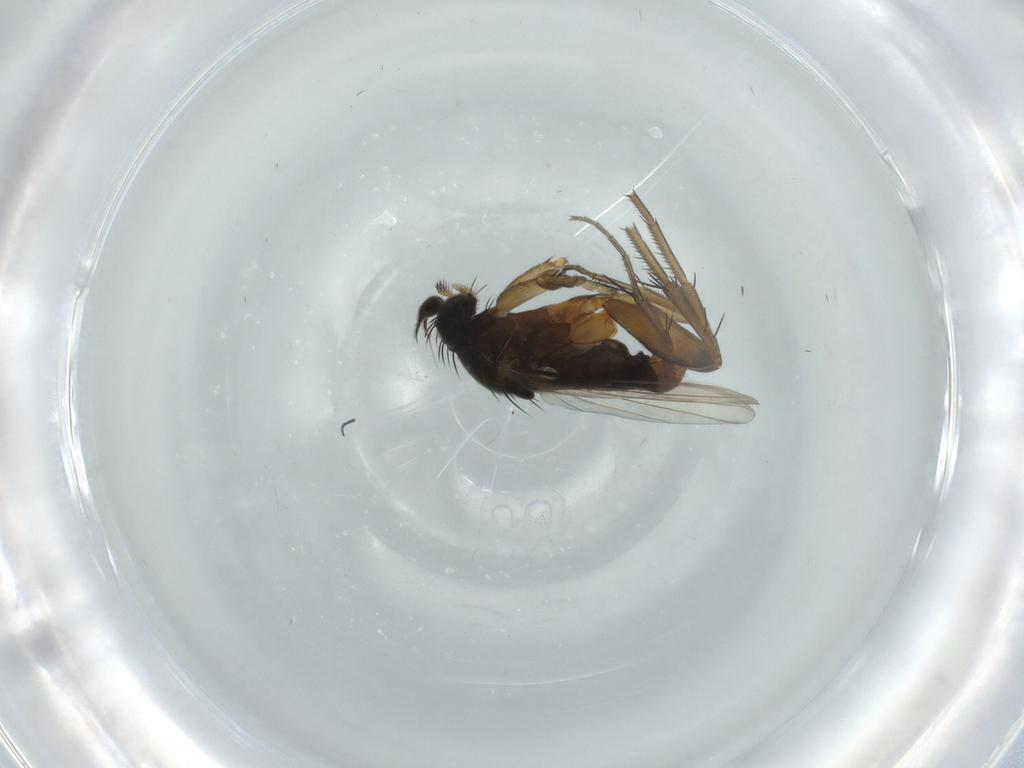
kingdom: Animalia
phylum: Arthropoda
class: Insecta
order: Diptera
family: Phoridae
